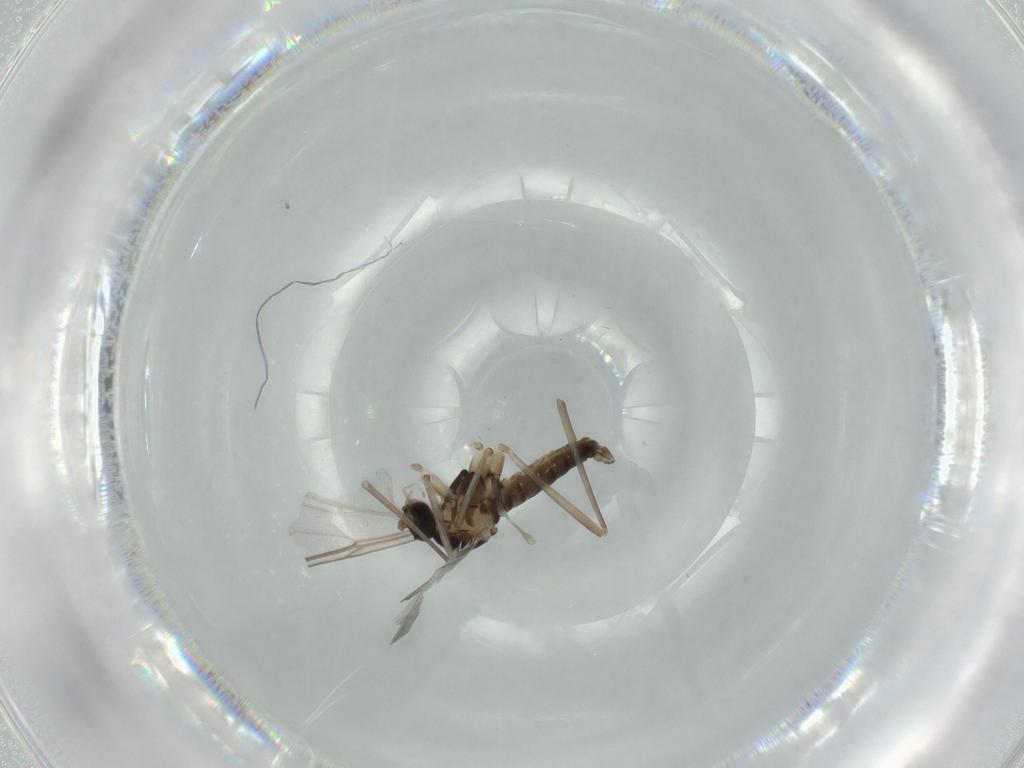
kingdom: Animalia
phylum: Arthropoda
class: Insecta
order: Diptera
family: Phoridae
